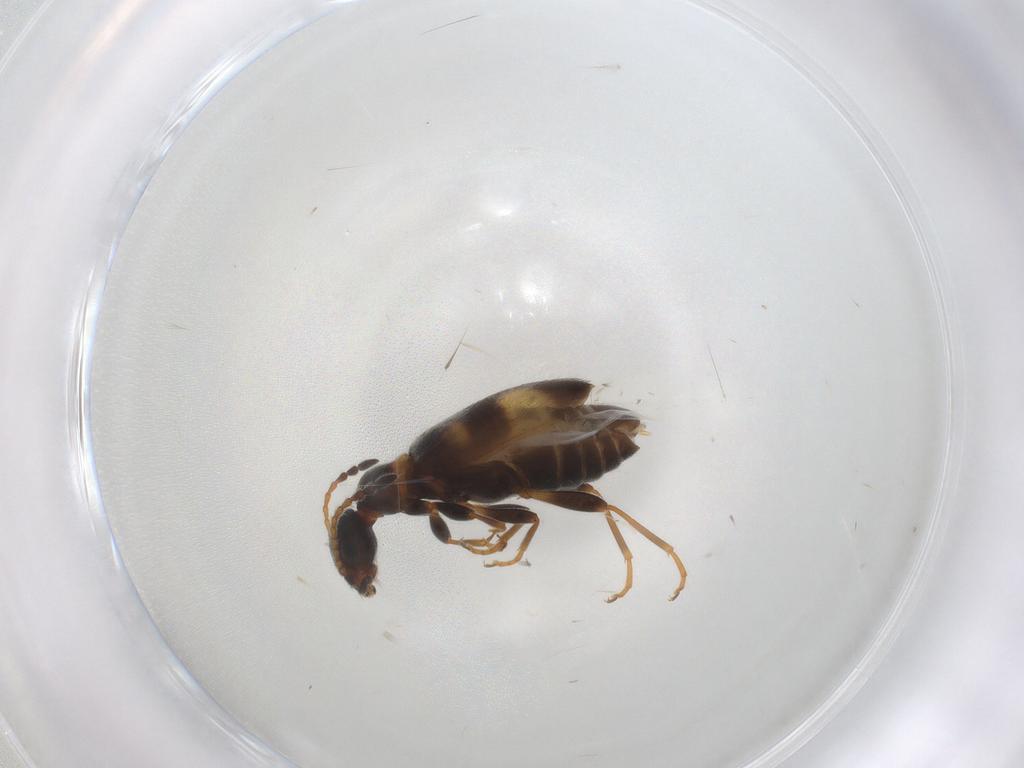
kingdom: Animalia
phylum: Arthropoda
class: Insecta
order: Coleoptera
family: Anthicidae
